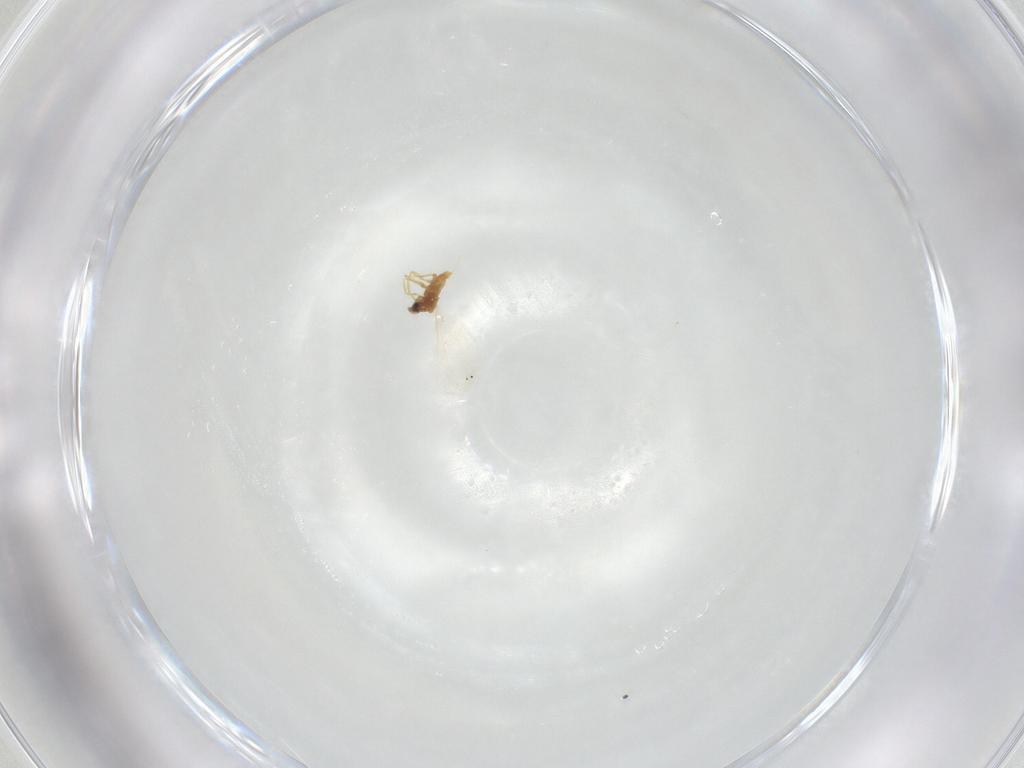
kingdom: Animalia
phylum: Arthropoda
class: Insecta
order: Diptera
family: Cecidomyiidae
